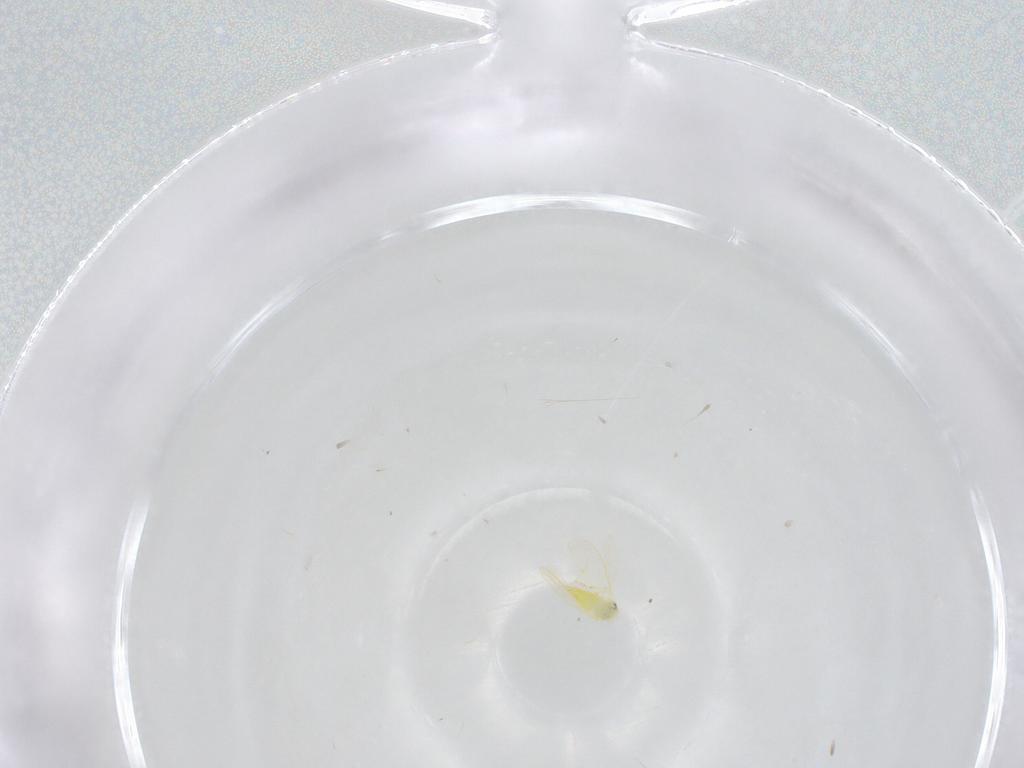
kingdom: Animalia
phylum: Arthropoda
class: Insecta
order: Hemiptera
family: Aleyrodidae
